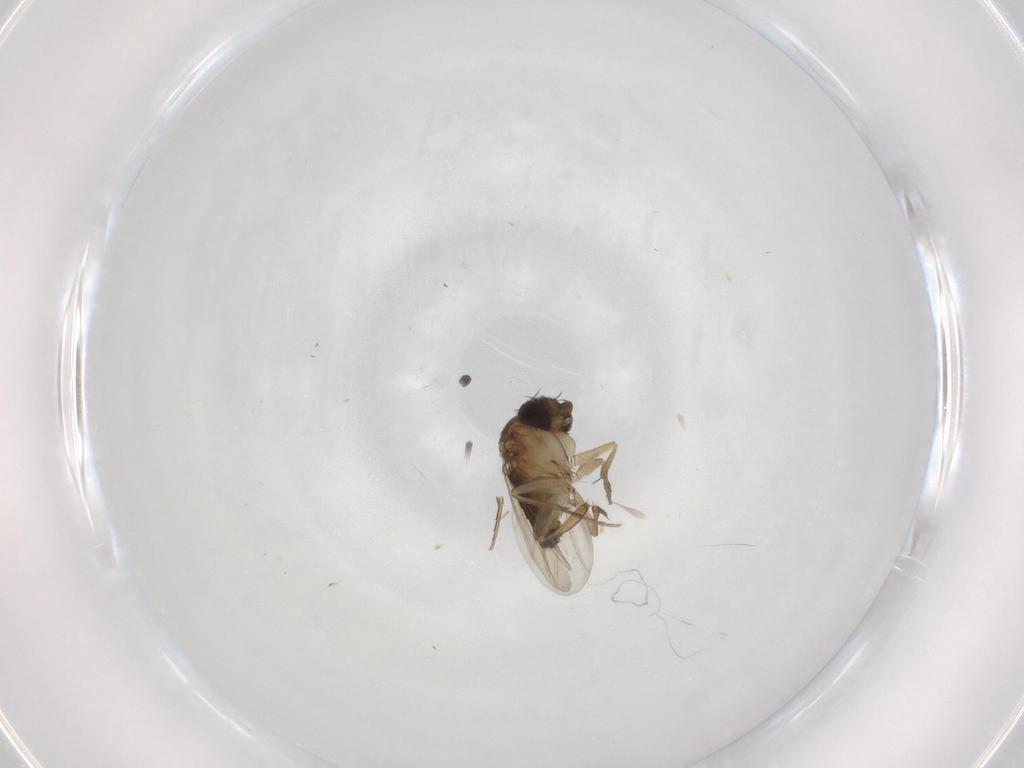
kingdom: Animalia
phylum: Arthropoda
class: Insecta
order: Diptera
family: Phoridae
